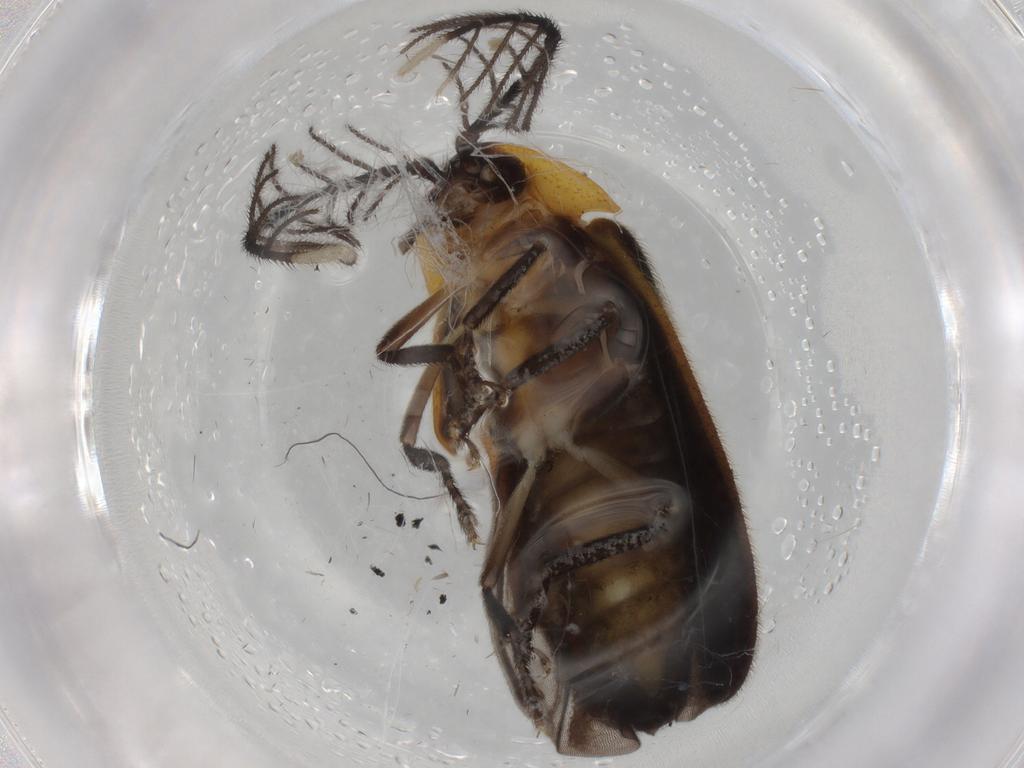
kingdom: Animalia
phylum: Arthropoda
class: Insecta
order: Coleoptera
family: Lampyridae
